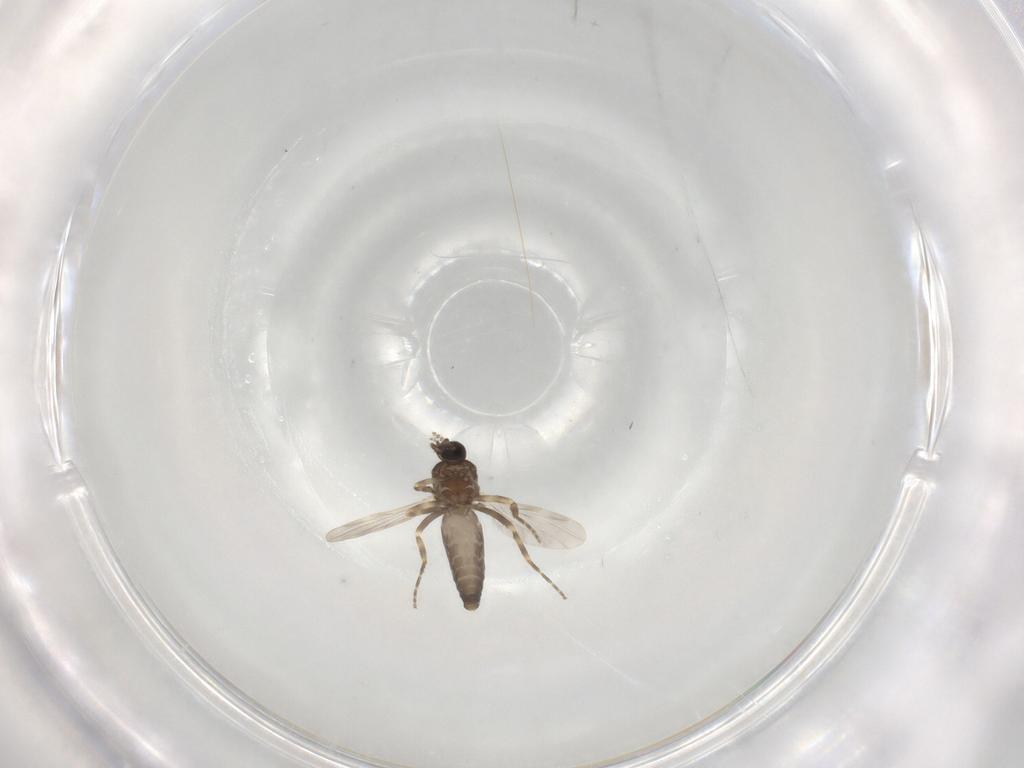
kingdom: Animalia
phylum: Arthropoda
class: Insecta
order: Diptera
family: Ceratopogonidae
